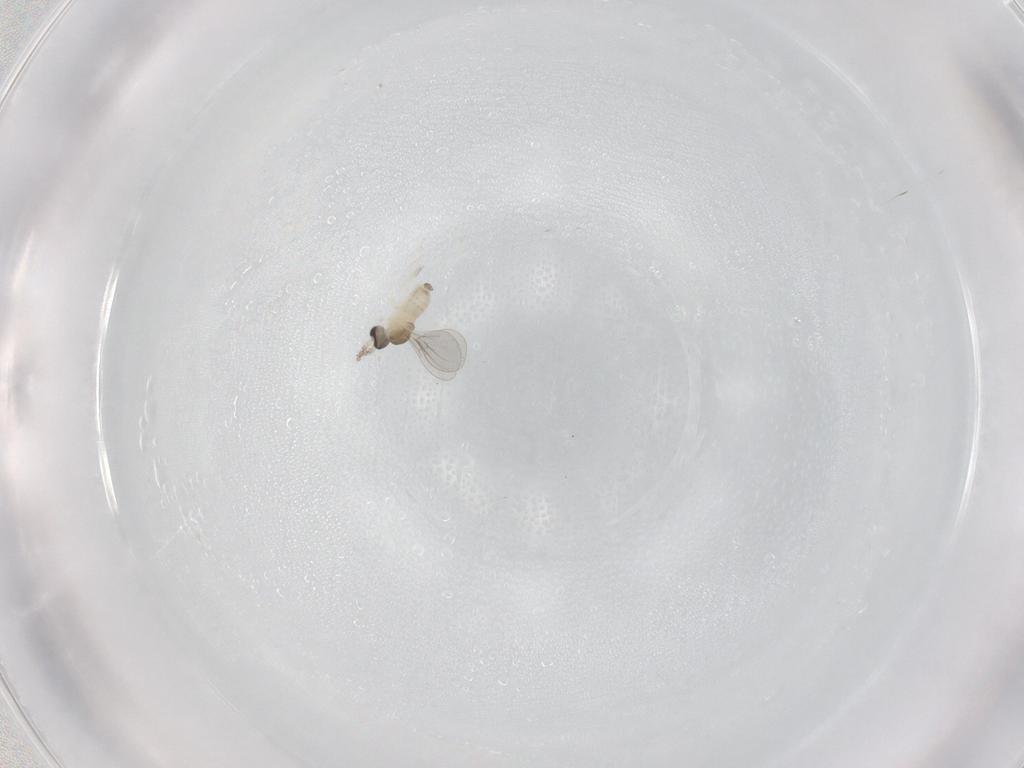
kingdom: Animalia
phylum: Arthropoda
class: Insecta
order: Diptera
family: Cecidomyiidae
